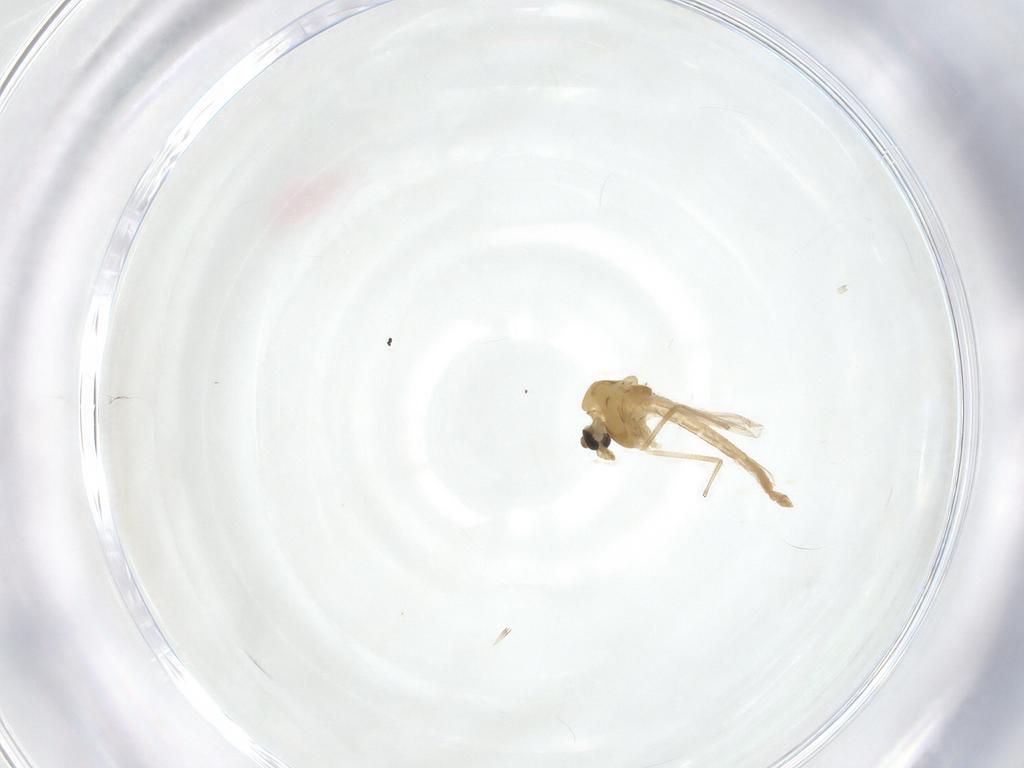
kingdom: Animalia
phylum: Arthropoda
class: Insecta
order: Diptera
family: Chironomidae
